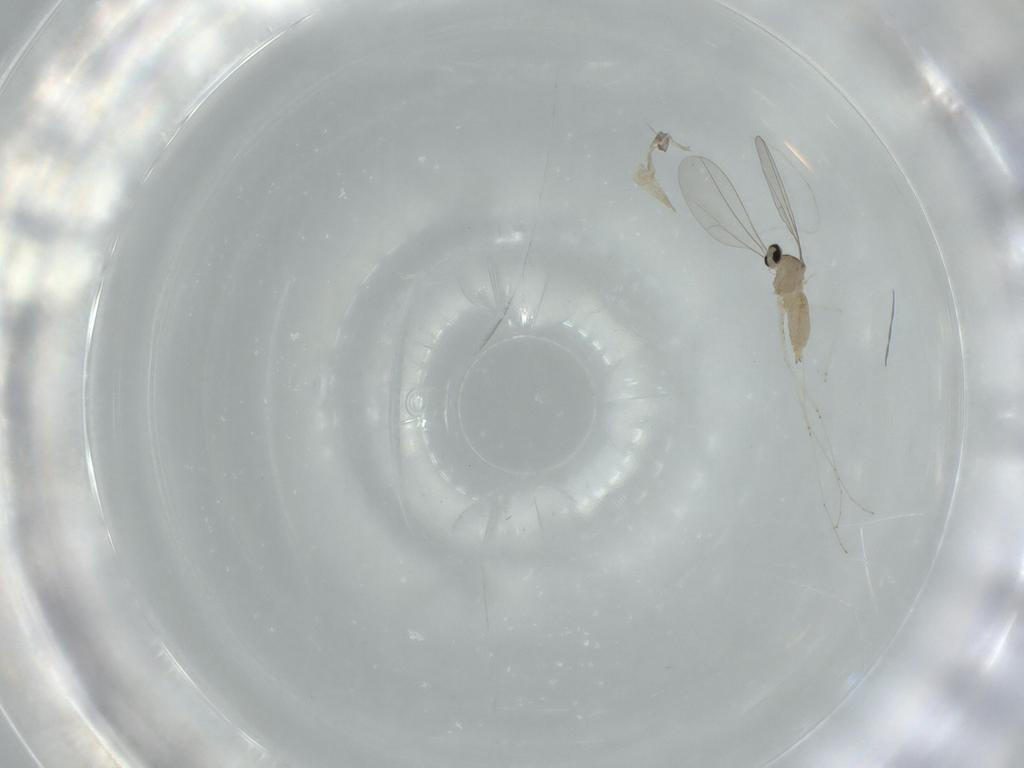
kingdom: Animalia
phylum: Arthropoda
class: Insecta
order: Diptera
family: Cecidomyiidae
